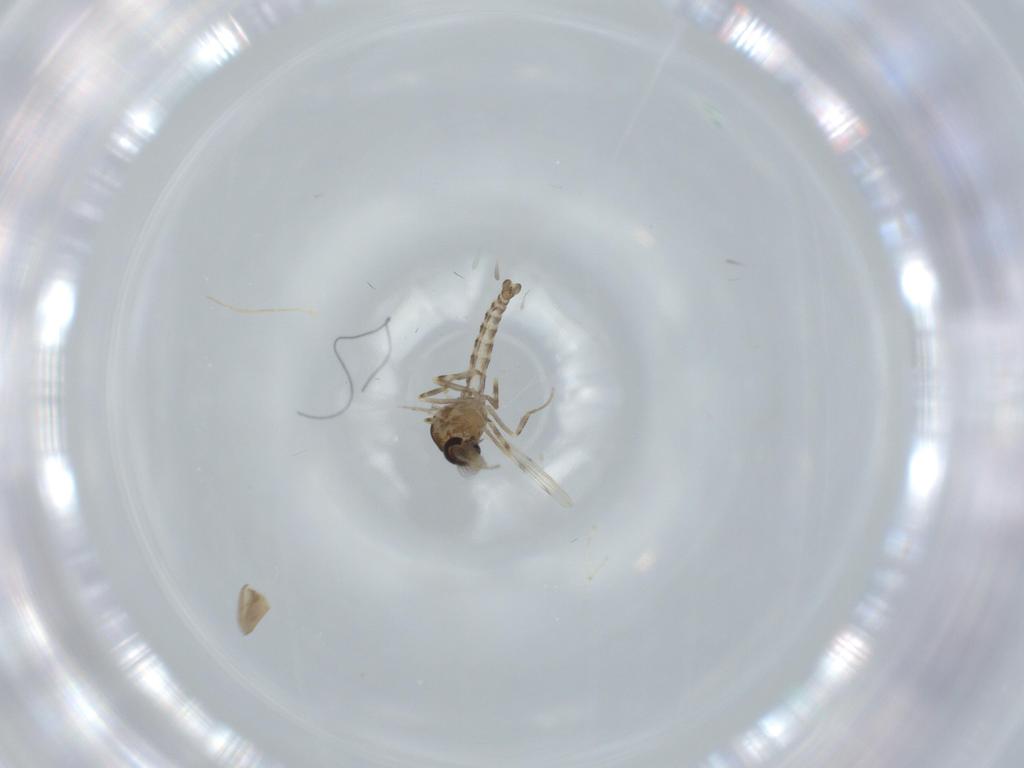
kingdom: Animalia
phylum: Arthropoda
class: Insecta
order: Diptera
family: Ceratopogonidae
